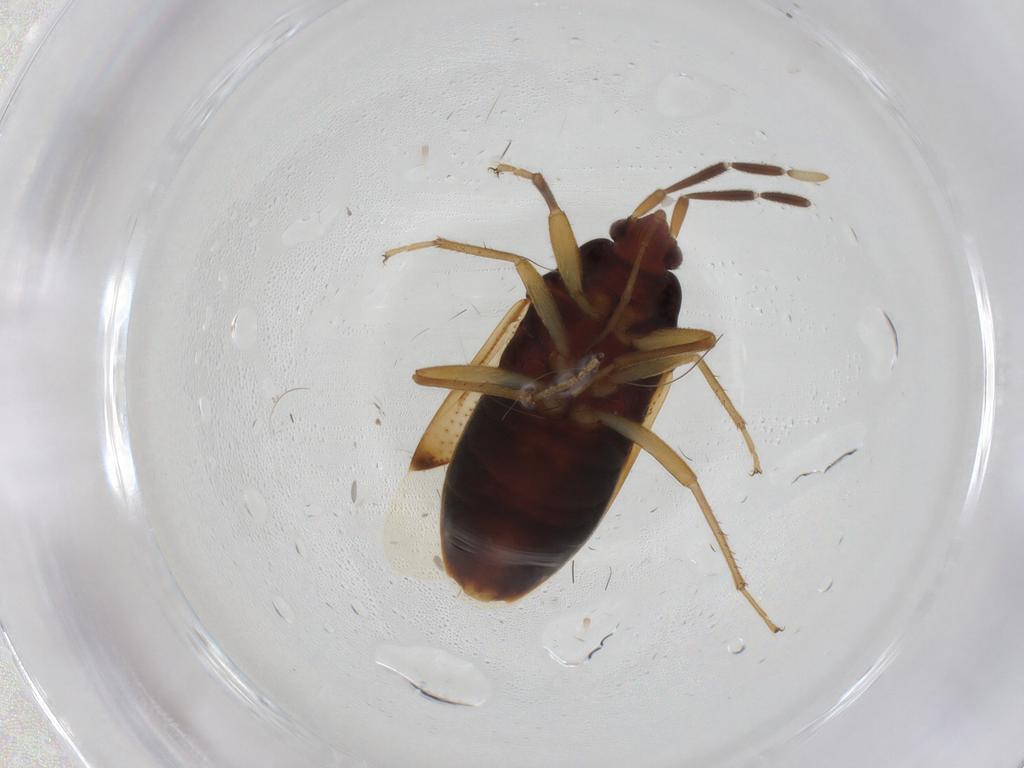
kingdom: Animalia
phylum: Arthropoda
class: Insecta
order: Hemiptera
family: Rhyparochromidae
